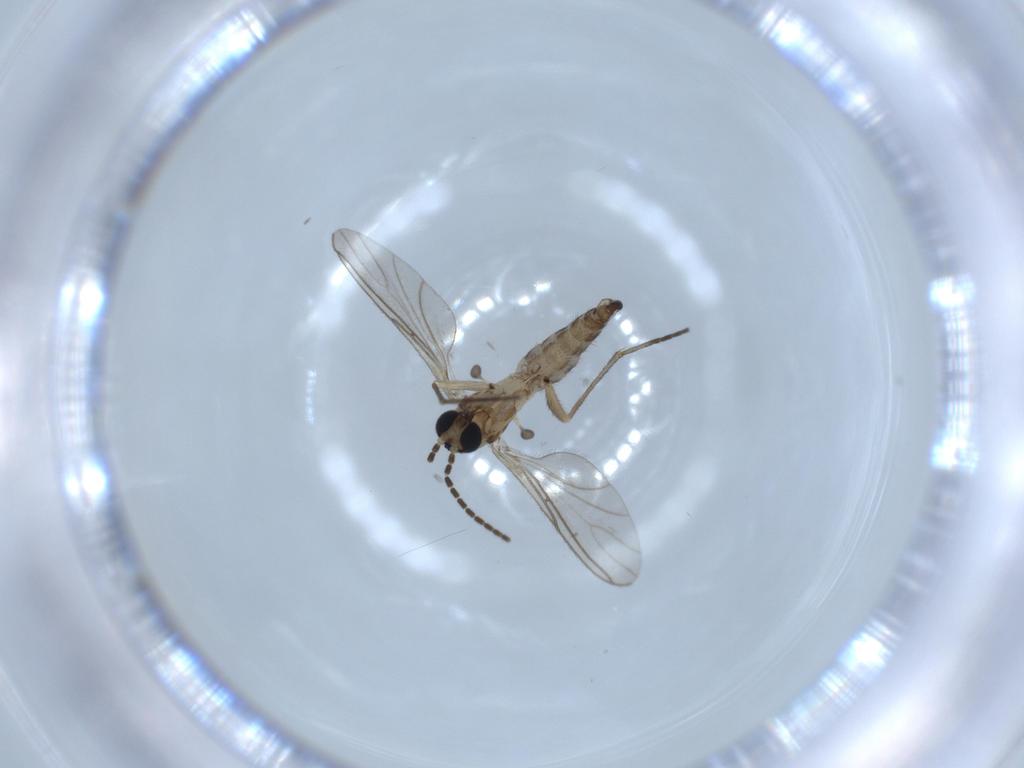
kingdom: Animalia
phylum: Arthropoda
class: Insecta
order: Diptera
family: Sciaridae
